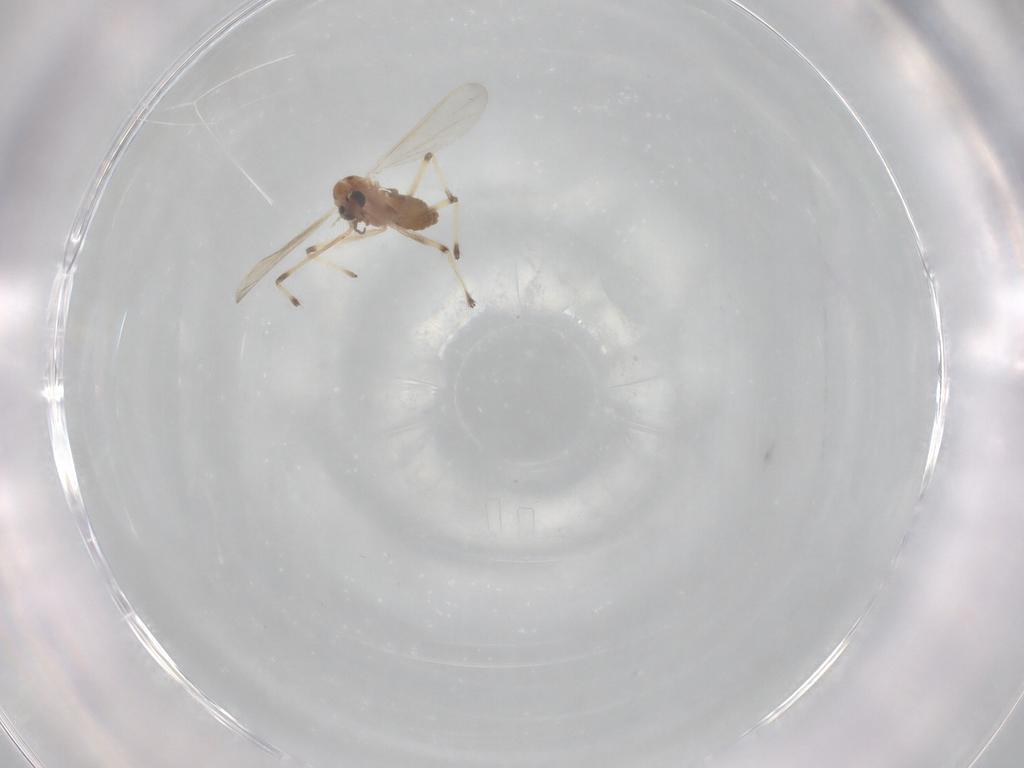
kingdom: Animalia
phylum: Arthropoda
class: Insecta
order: Diptera
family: Chironomidae
